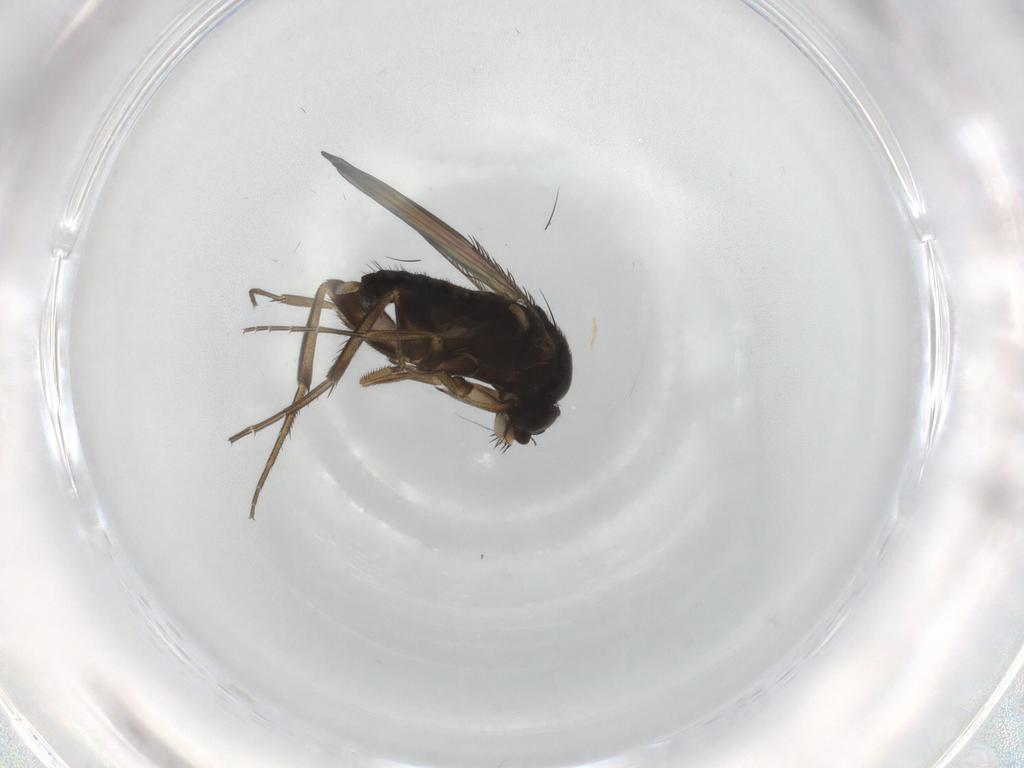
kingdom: Animalia
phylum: Arthropoda
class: Insecta
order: Diptera
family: Phoridae
